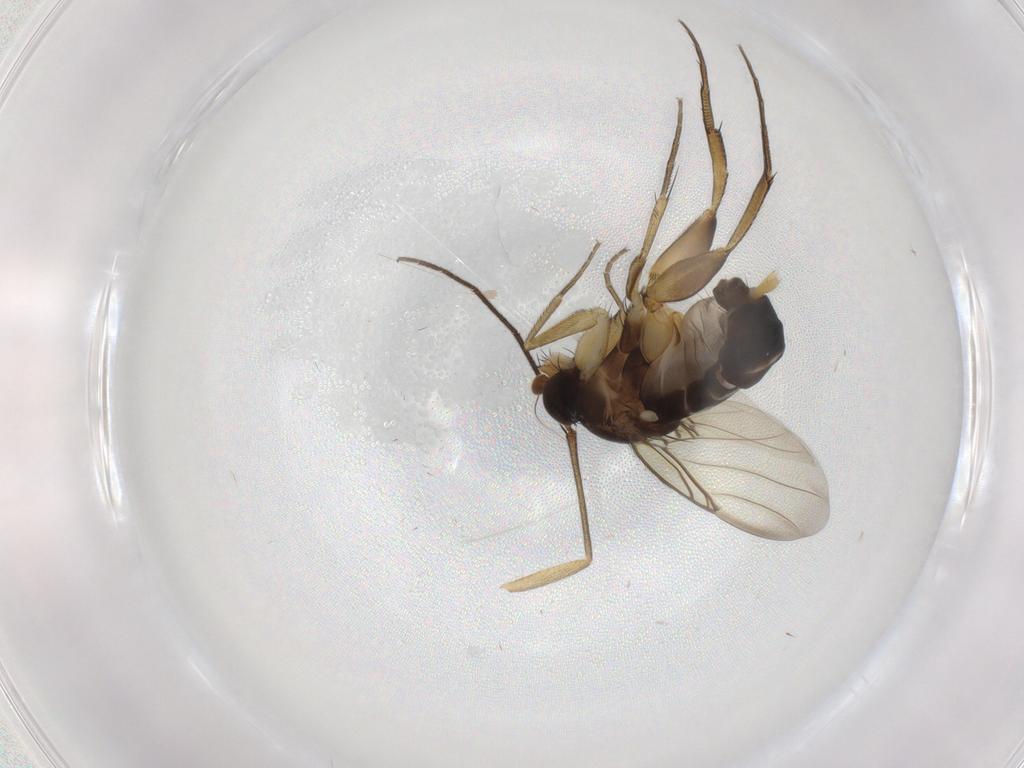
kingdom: Animalia
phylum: Arthropoda
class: Insecta
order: Diptera
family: Phoridae
